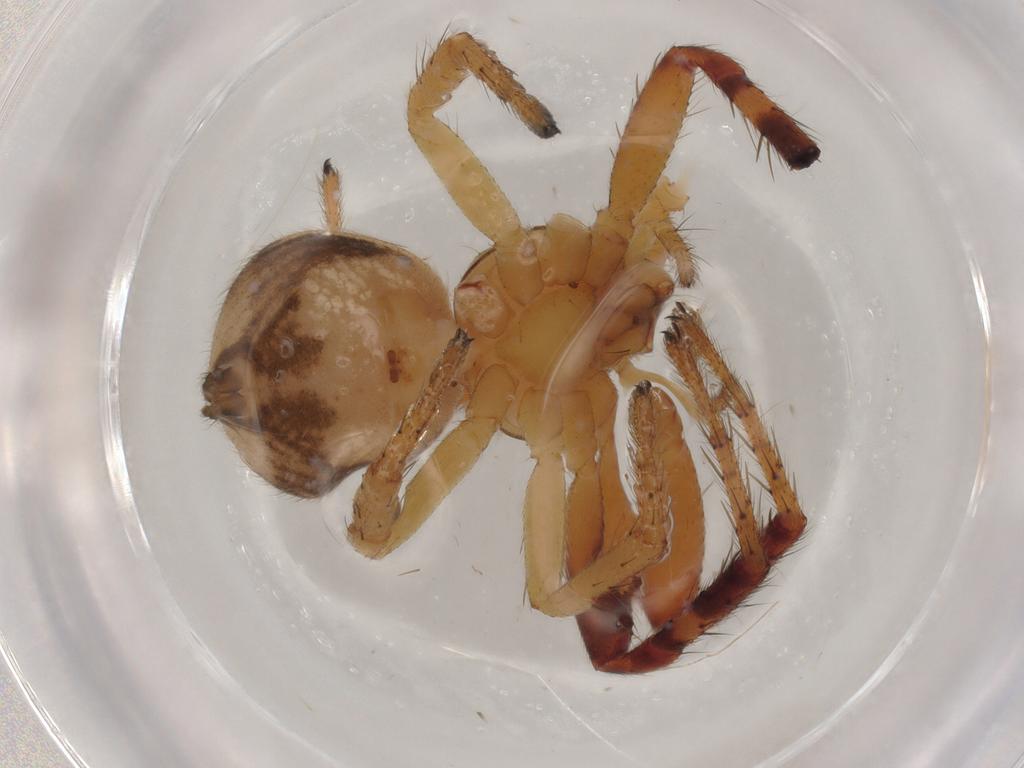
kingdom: Animalia
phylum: Arthropoda
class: Arachnida
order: Araneae
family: Thomisidae
